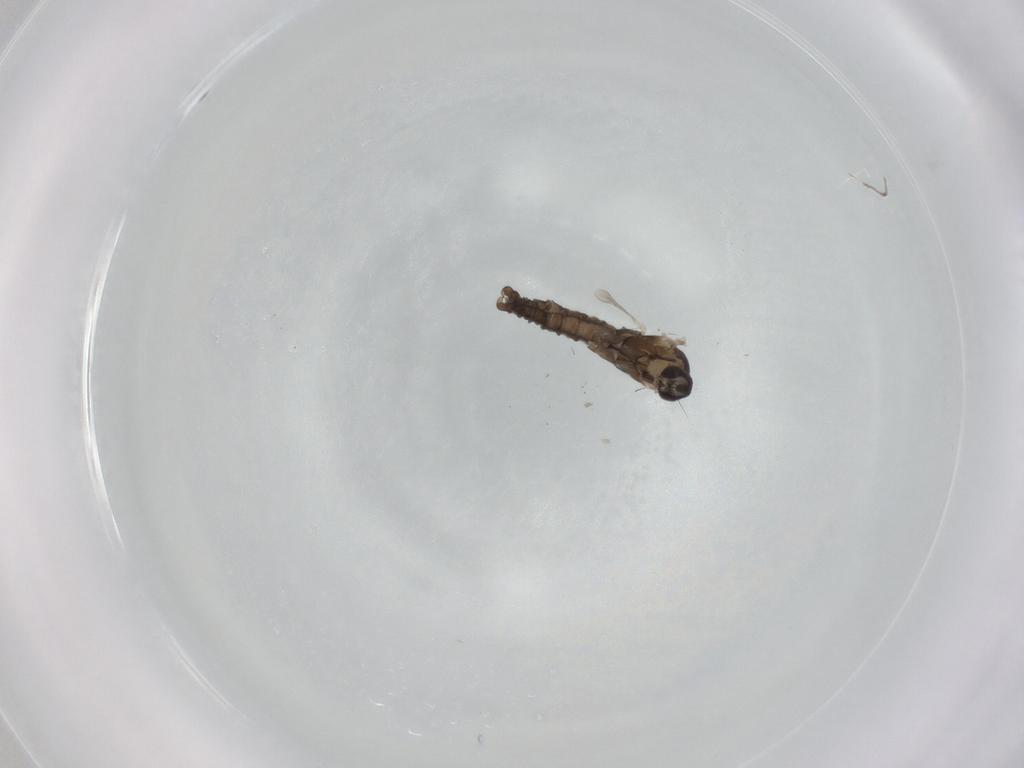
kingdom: Animalia
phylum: Arthropoda
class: Insecta
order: Diptera
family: Cecidomyiidae
